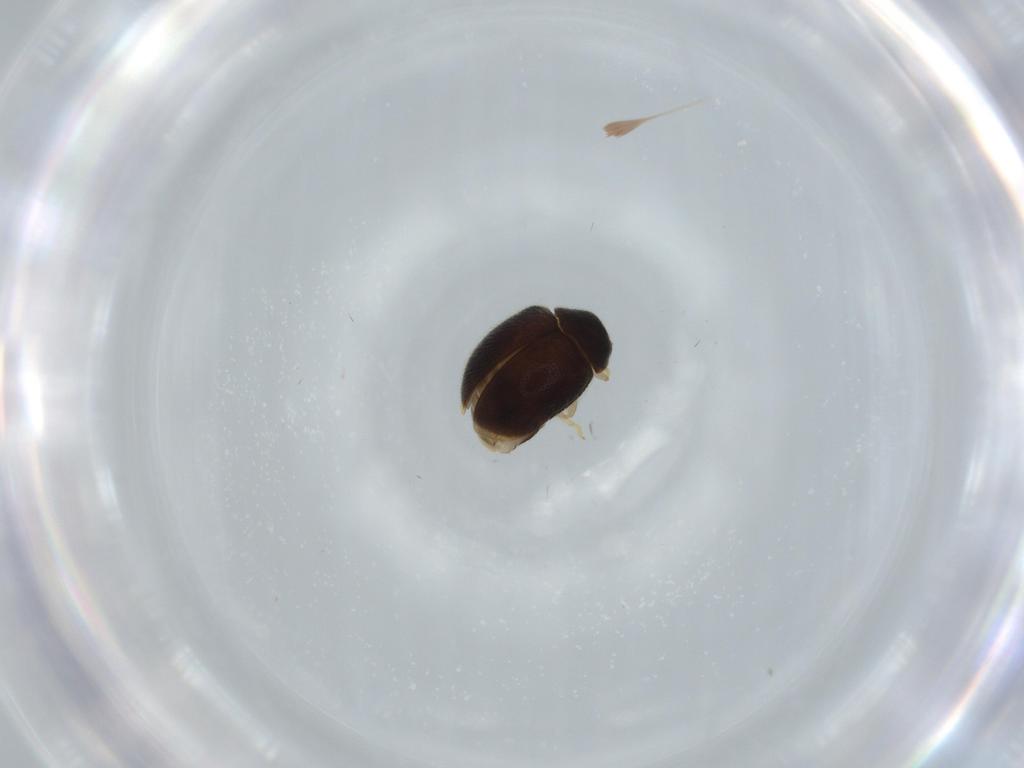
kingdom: Animalia
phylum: Arthropoda
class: Insecta
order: Coleoptera
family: Coccinellidae
